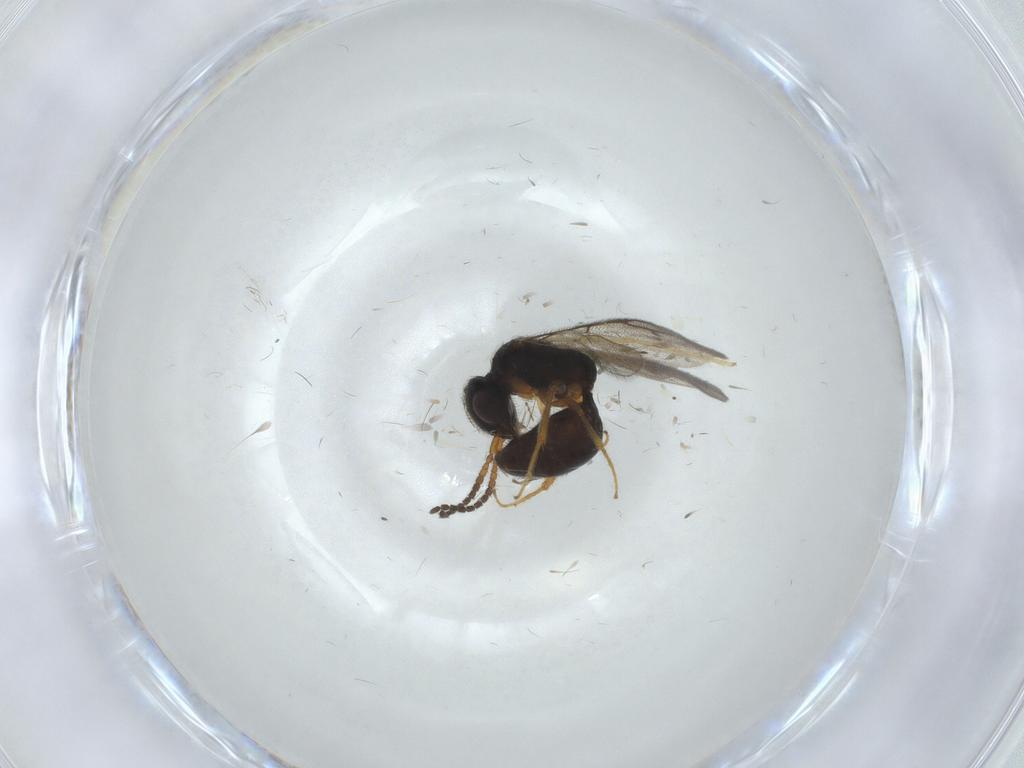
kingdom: Animalia
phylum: Arthropoda
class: Insecta
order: Hymenoptera
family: Bethylidae
